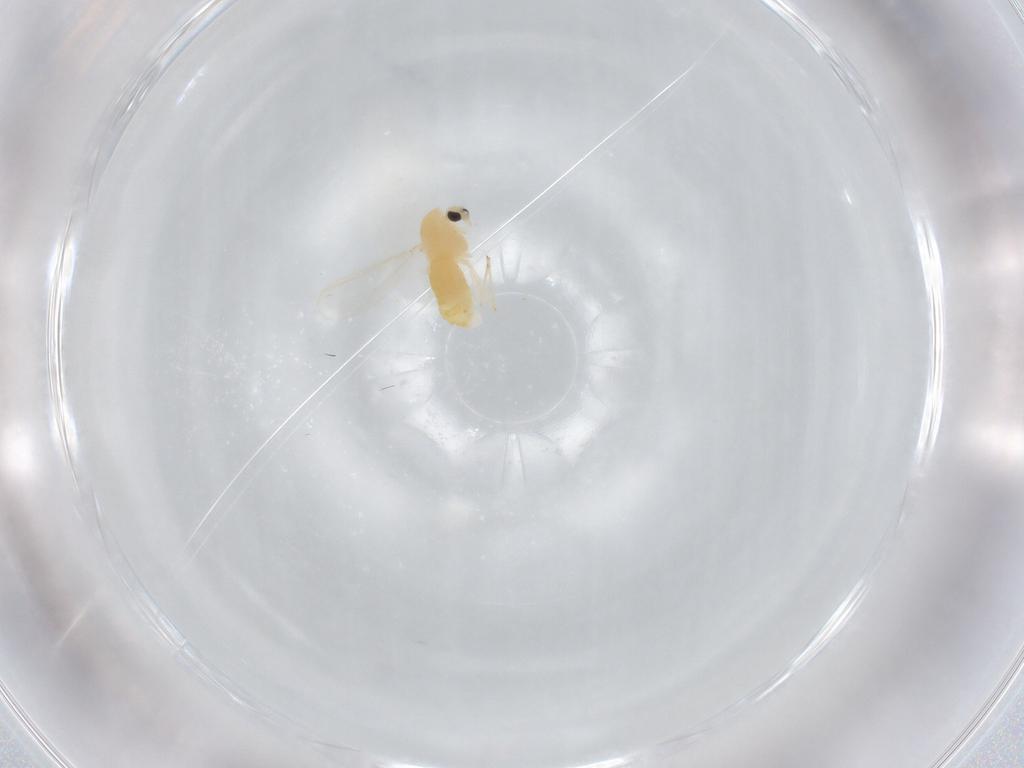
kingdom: Animalia
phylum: Arthropoda
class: Insecta
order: Diptera
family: Chironomidae
